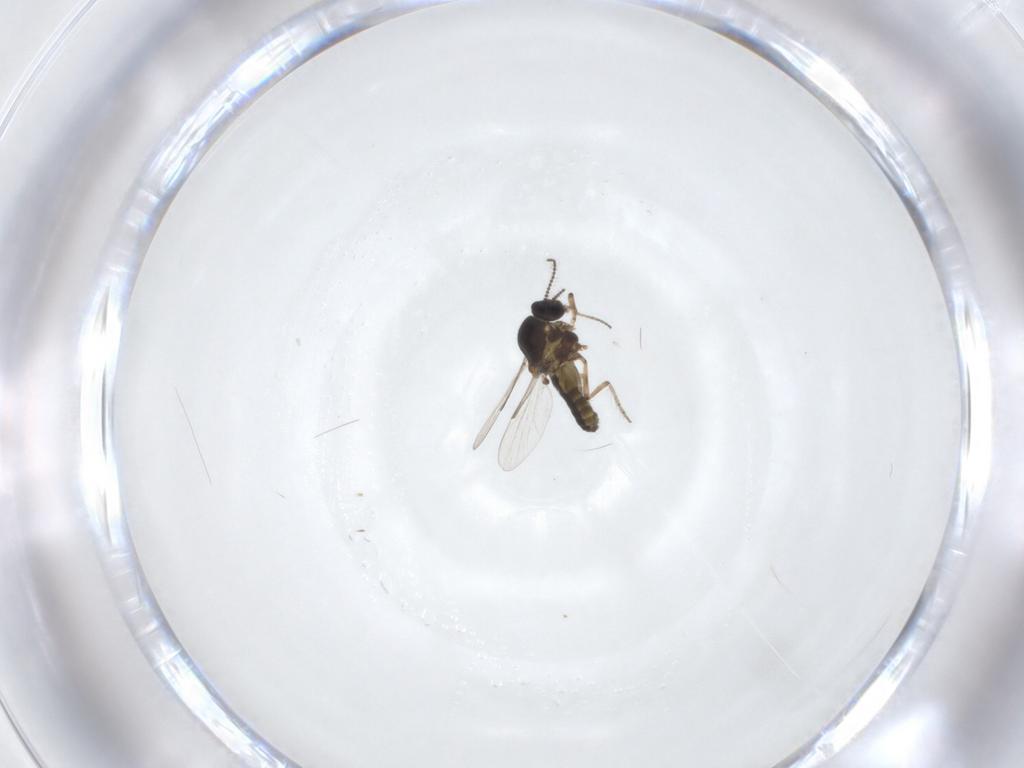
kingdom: Animalia
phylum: Arthropoda
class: Insecta
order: Diptera
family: Ceratopogonidae
